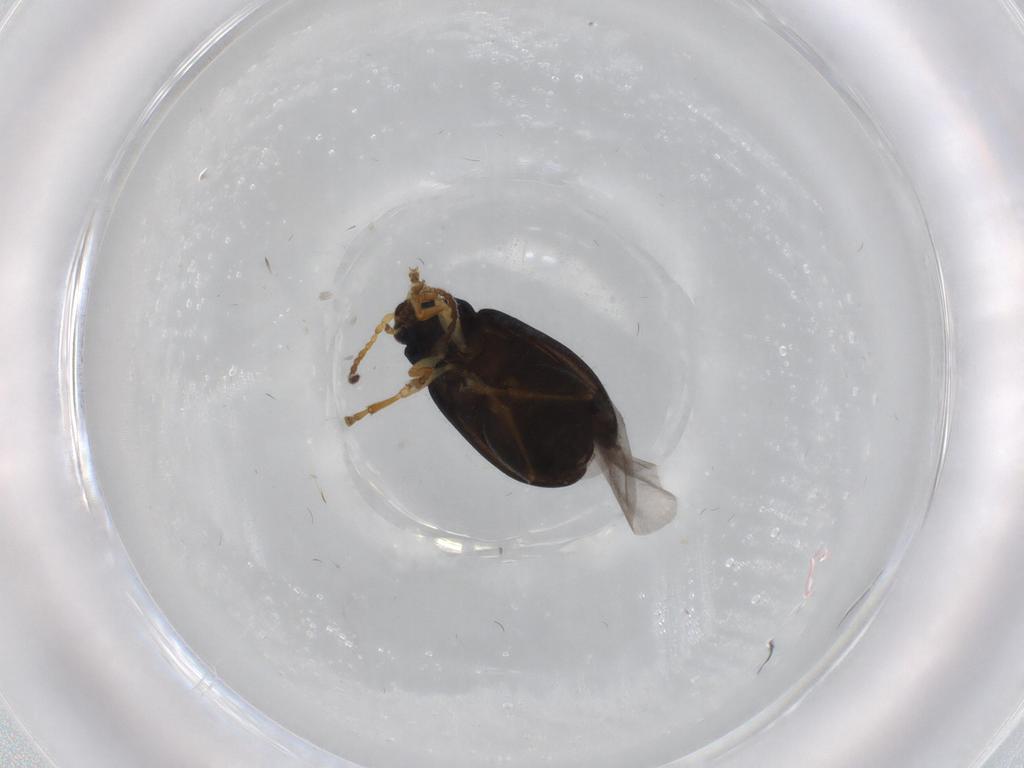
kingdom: Animalia
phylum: Arthropoda
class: Insecta
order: Coleoptera
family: Chrysomelidae
